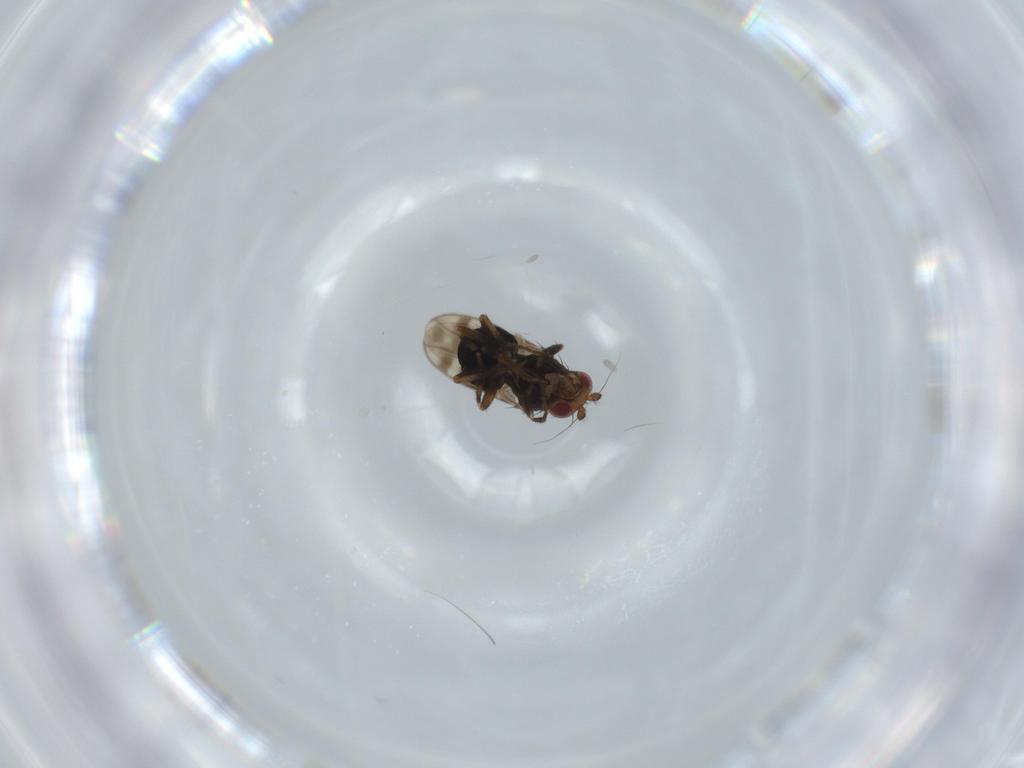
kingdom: Animalia
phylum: Arthropoda
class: Insecta
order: Diptera
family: Sphaeroceridae
